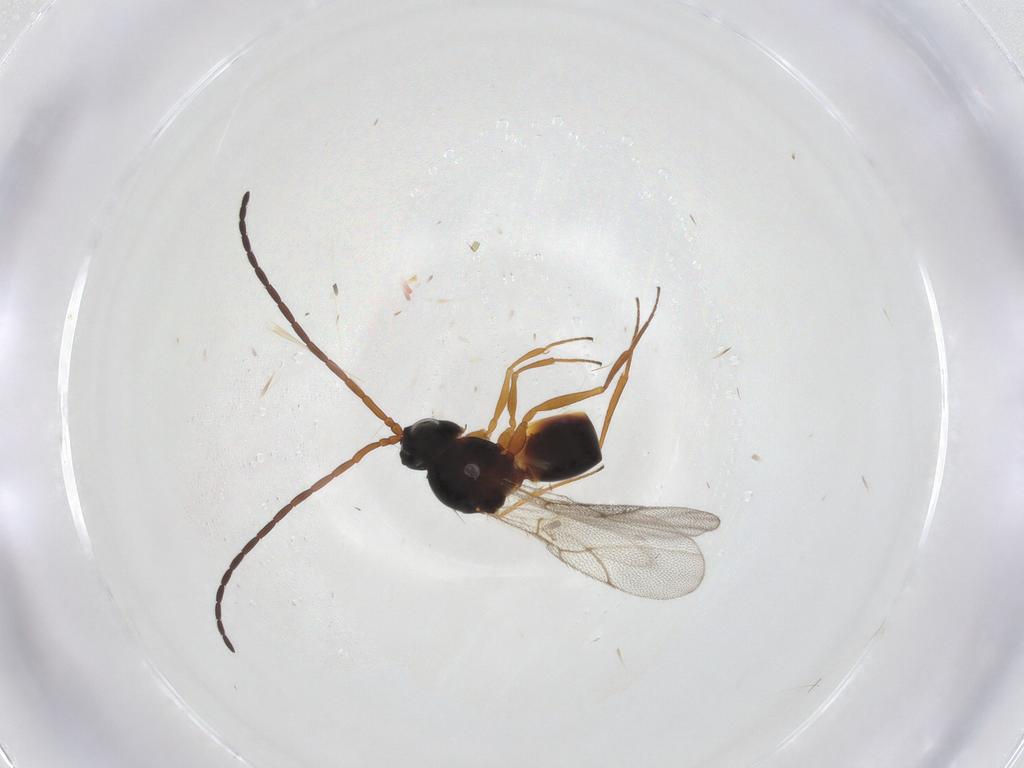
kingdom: Animalia
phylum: Arthropoda
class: Insecta
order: Hymenoptera
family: Figitidae
